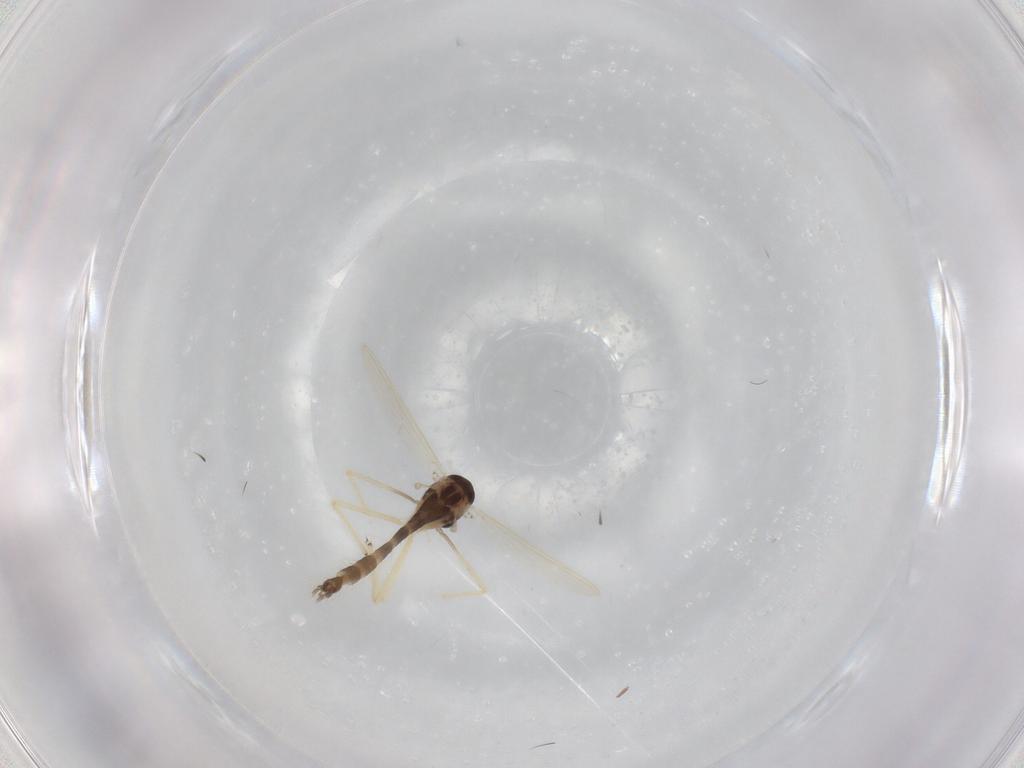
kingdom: Animalia
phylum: Arthropoda
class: Insecta
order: Diptera
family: Chironomidae
